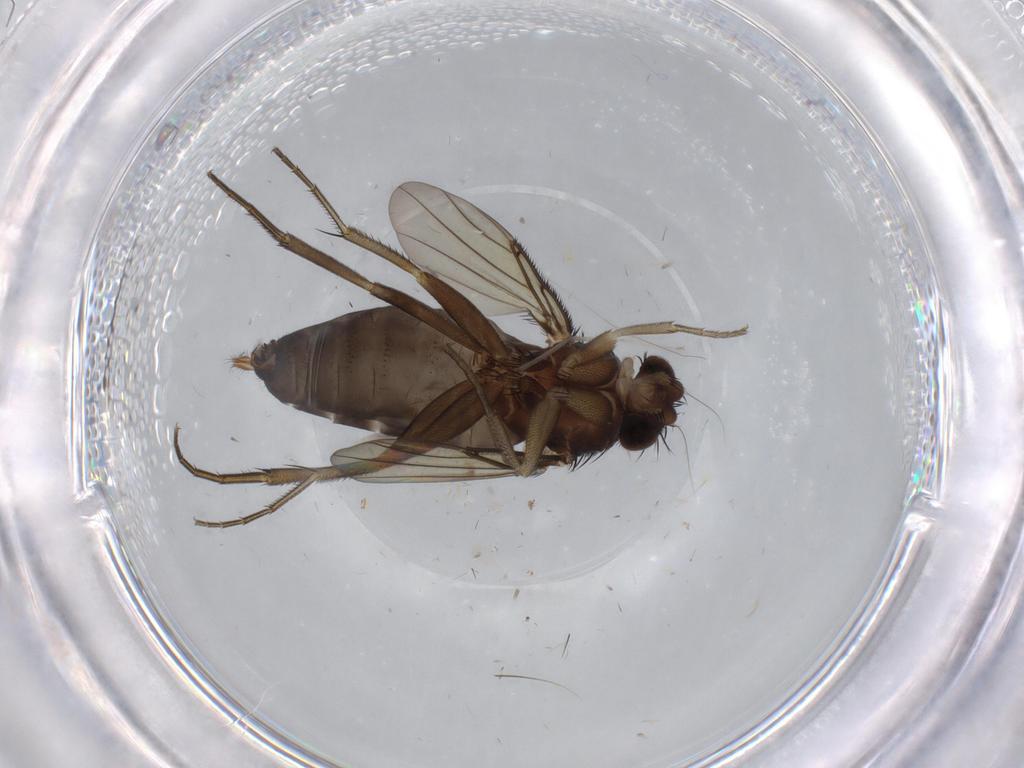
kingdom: Animalia
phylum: Arthropoda
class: Insecta
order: Diptera
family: Phoridae
